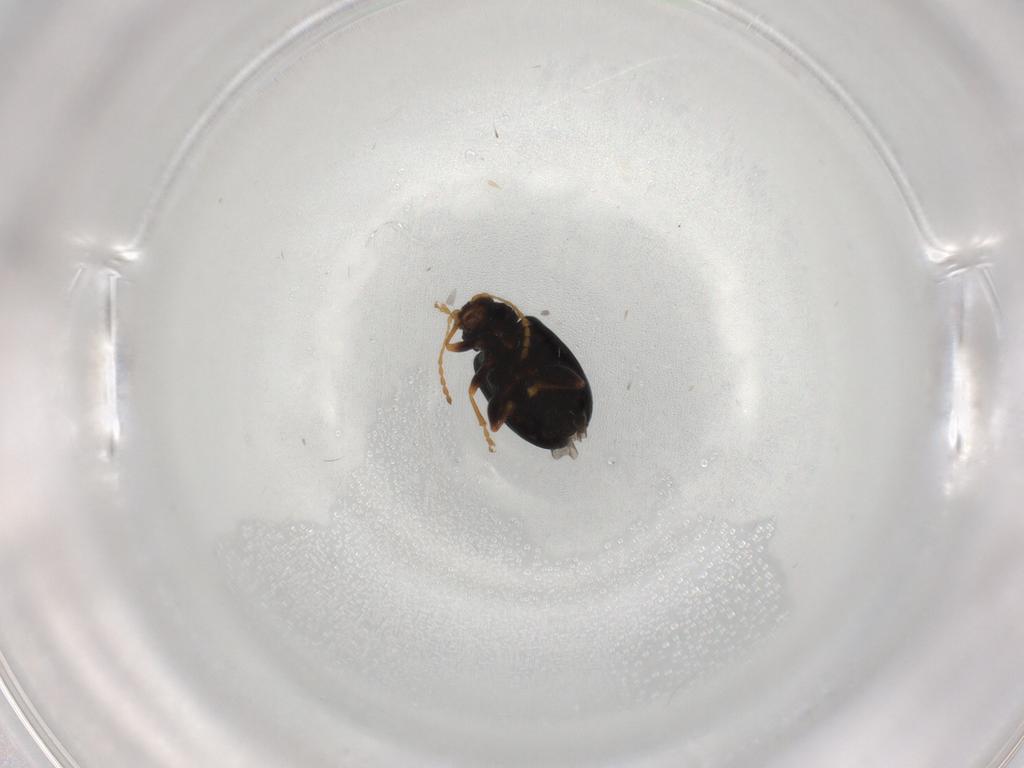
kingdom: Animalia
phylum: Arthropoda
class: Insecta
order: Coleoptera
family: Chrysomelidae
